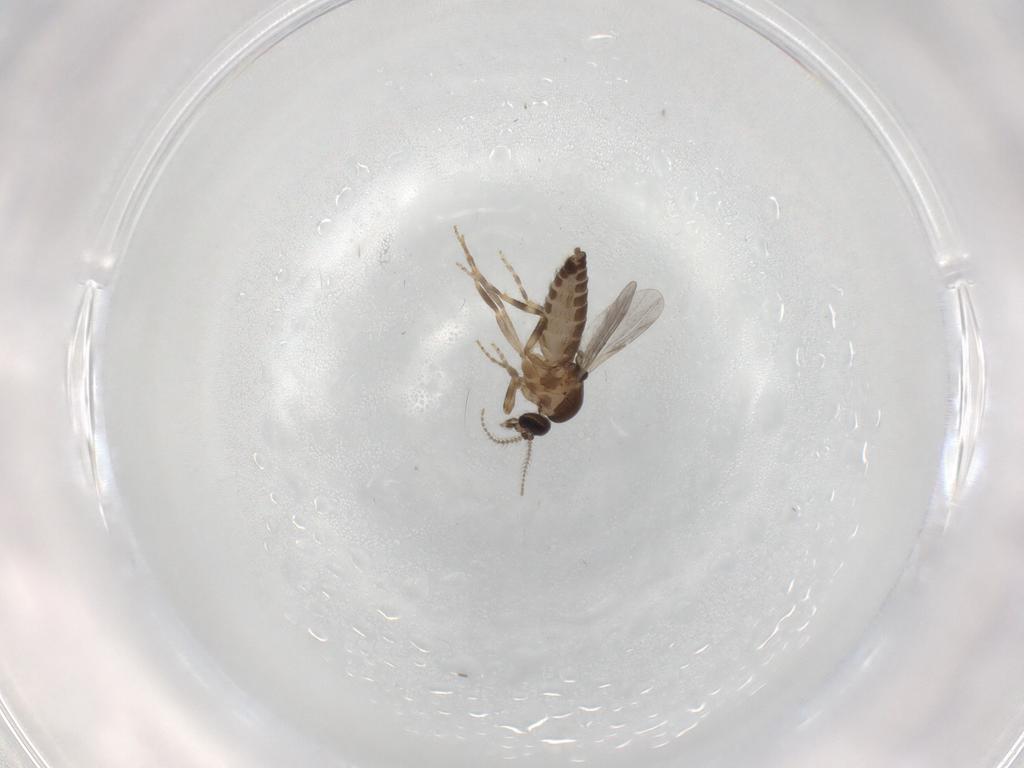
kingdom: Animalia
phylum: Arthropoda
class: Insecta
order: Diptera
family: Ceratopogonidae
